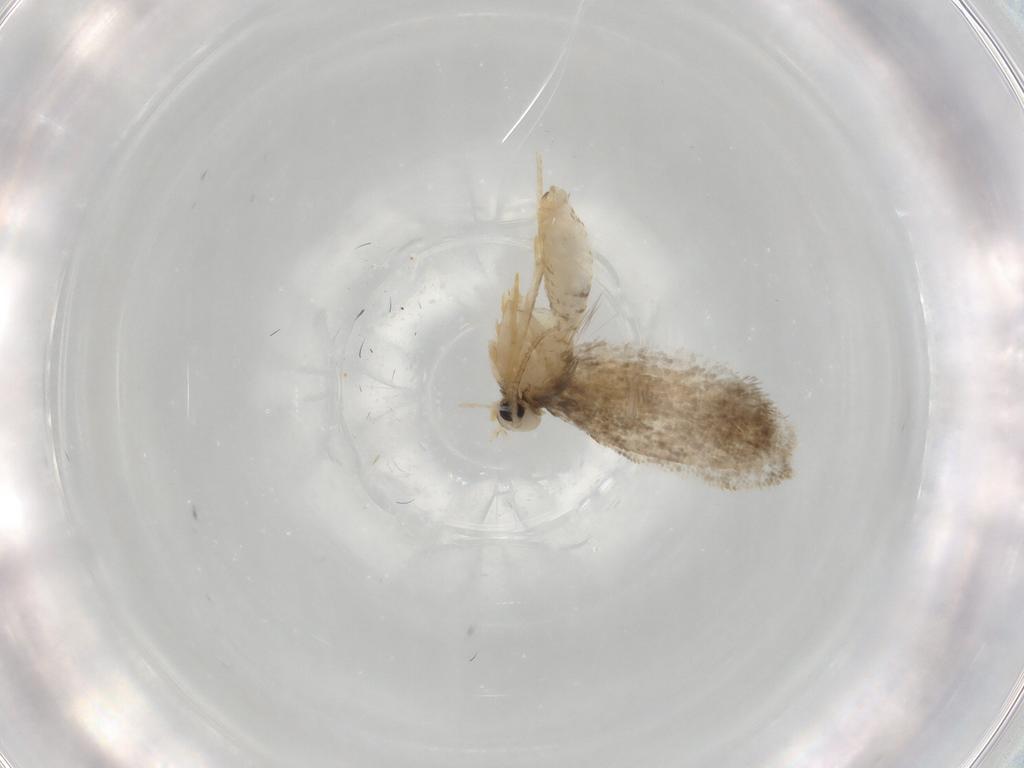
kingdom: Animalia
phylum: Arthropoda
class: Insecta
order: Lepidoptera
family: Psychidae
